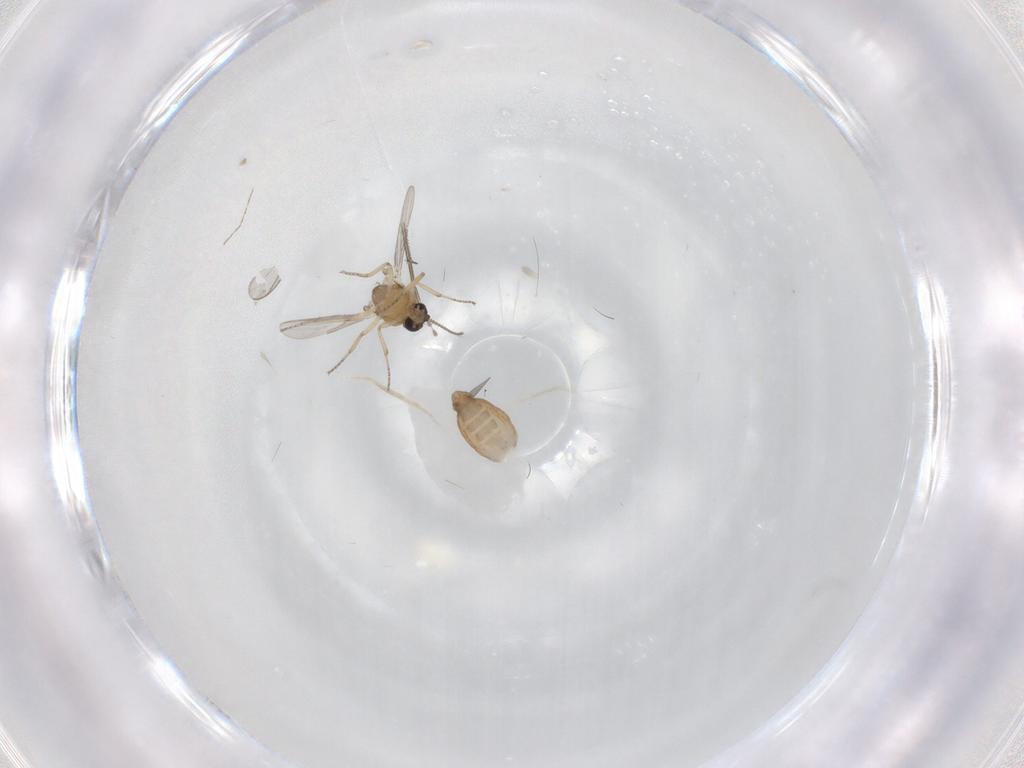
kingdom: Animalia
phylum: Arthropoda
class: Insecta
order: Diptera
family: Ceratopogonidae
